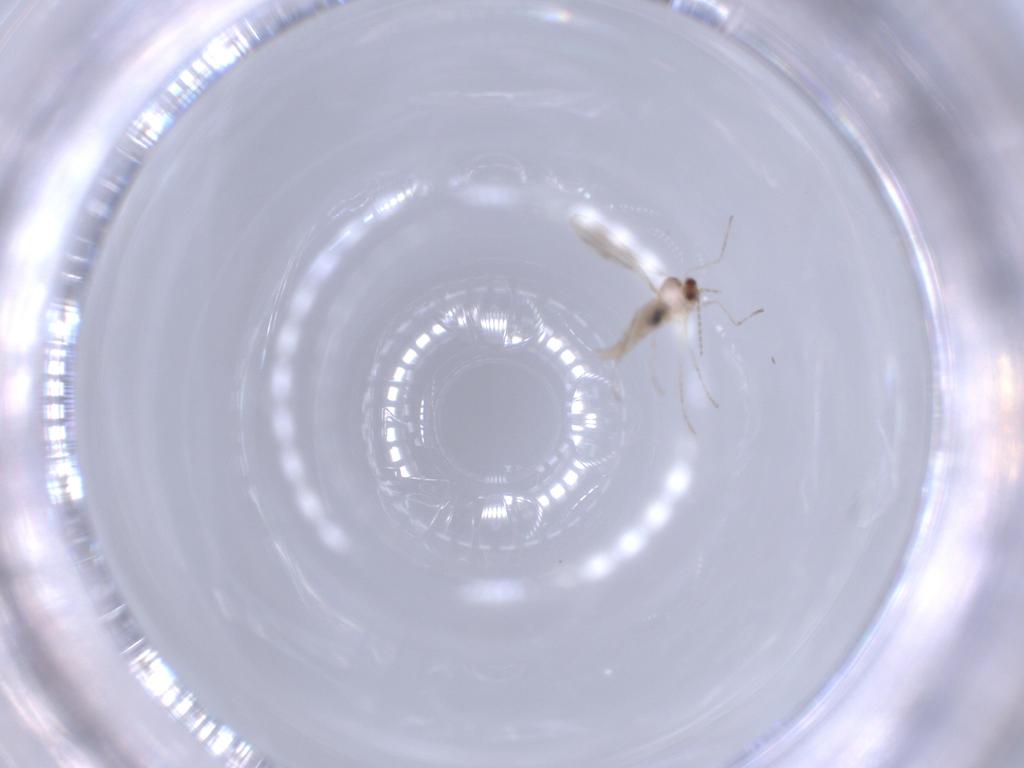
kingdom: Animalia
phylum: Arthropoda
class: Insecta
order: Diptera
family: Cecidomyiidae
